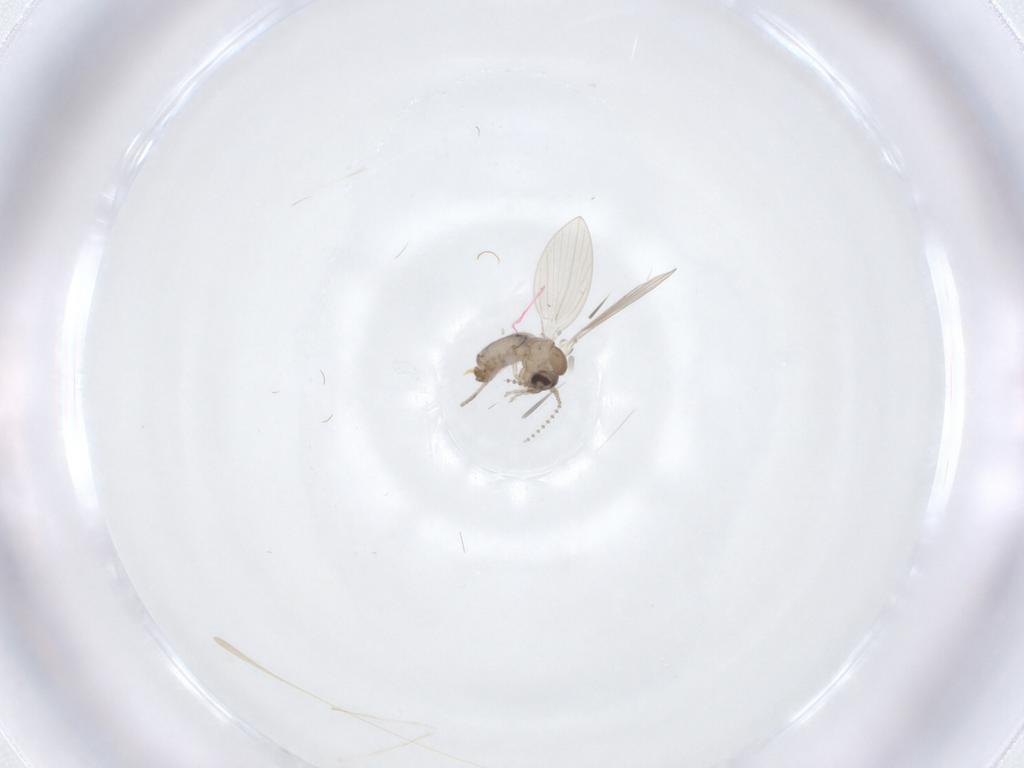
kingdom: Animalia
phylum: Arthropoda
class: Insecta
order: Diptera
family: Psychodidae
